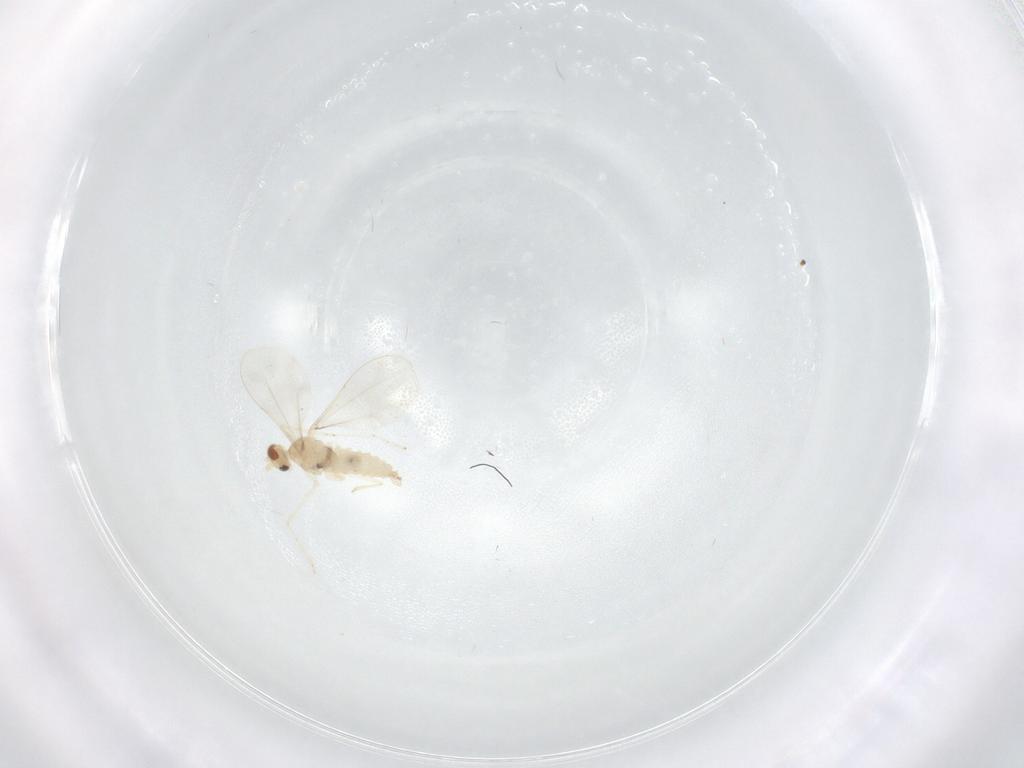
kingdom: Animalia
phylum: Arthropoda
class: Insecta
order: Diptera
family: Cecidomyiidae
